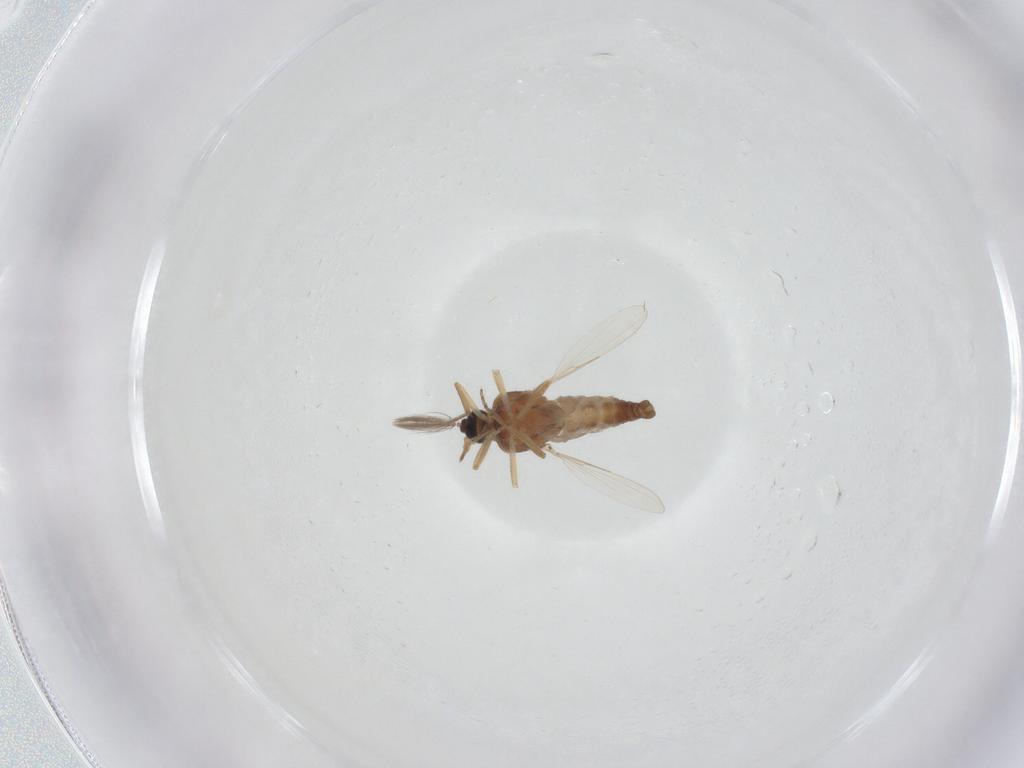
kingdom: Animalia
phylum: Arthropoda
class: Insecta
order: Diptera
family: Ceratopogonidae
